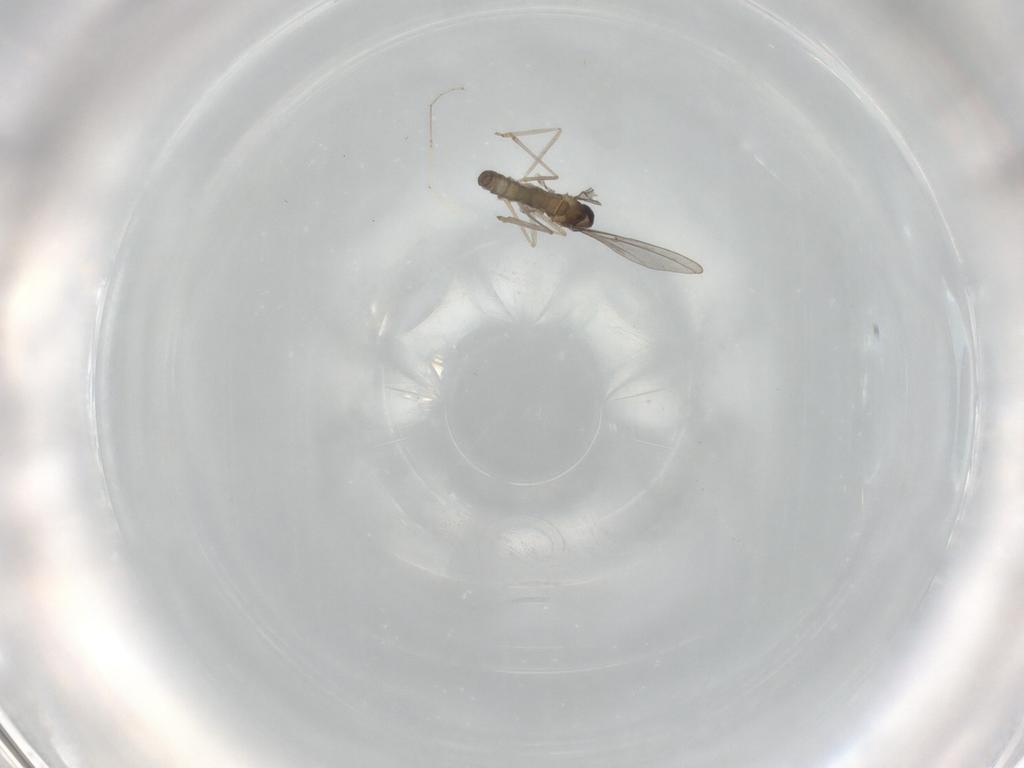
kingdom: Animalia
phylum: Arthropoda
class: Insecta
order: Diptera
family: Cecidomyiidae
